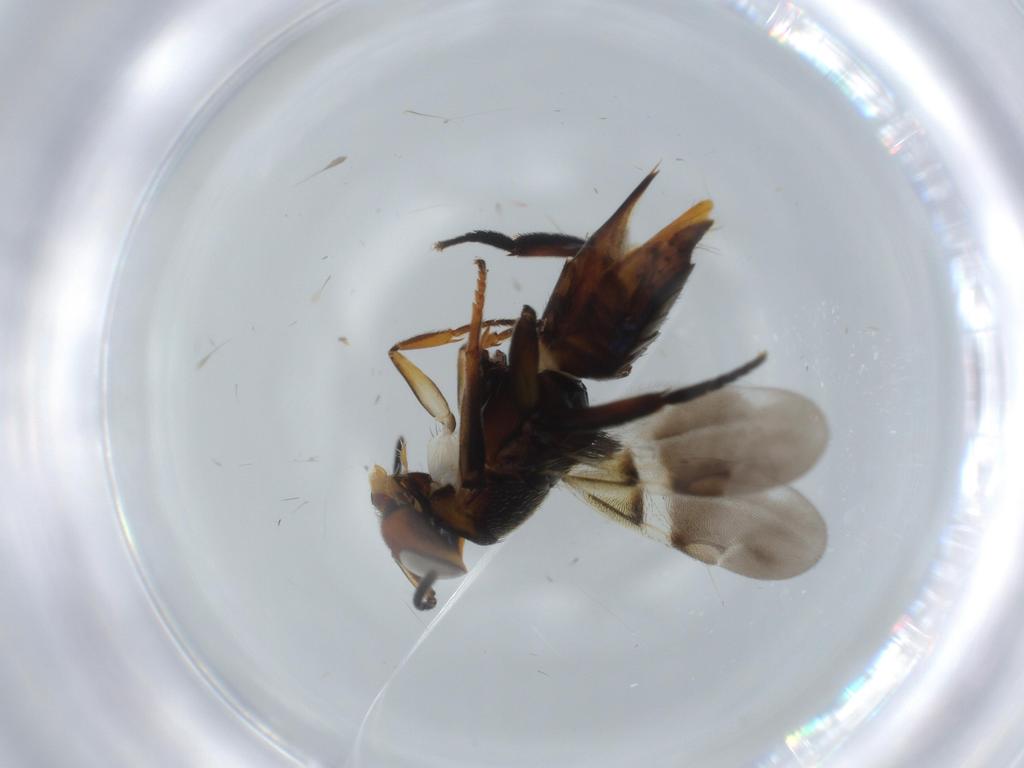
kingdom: Animalia
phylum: Arthropoda
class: Insecta
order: Hymenoptera
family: Encyrtidae
